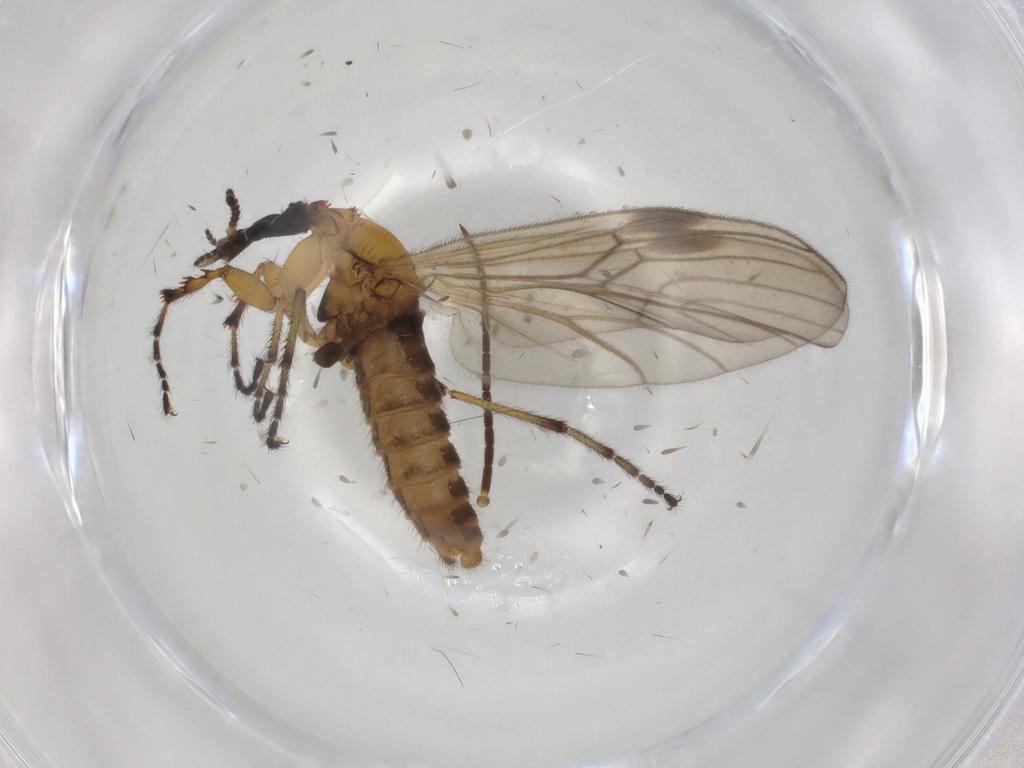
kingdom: Animalia
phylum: Arthropoda
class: Insecta
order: Diptera
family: Bibionidae
